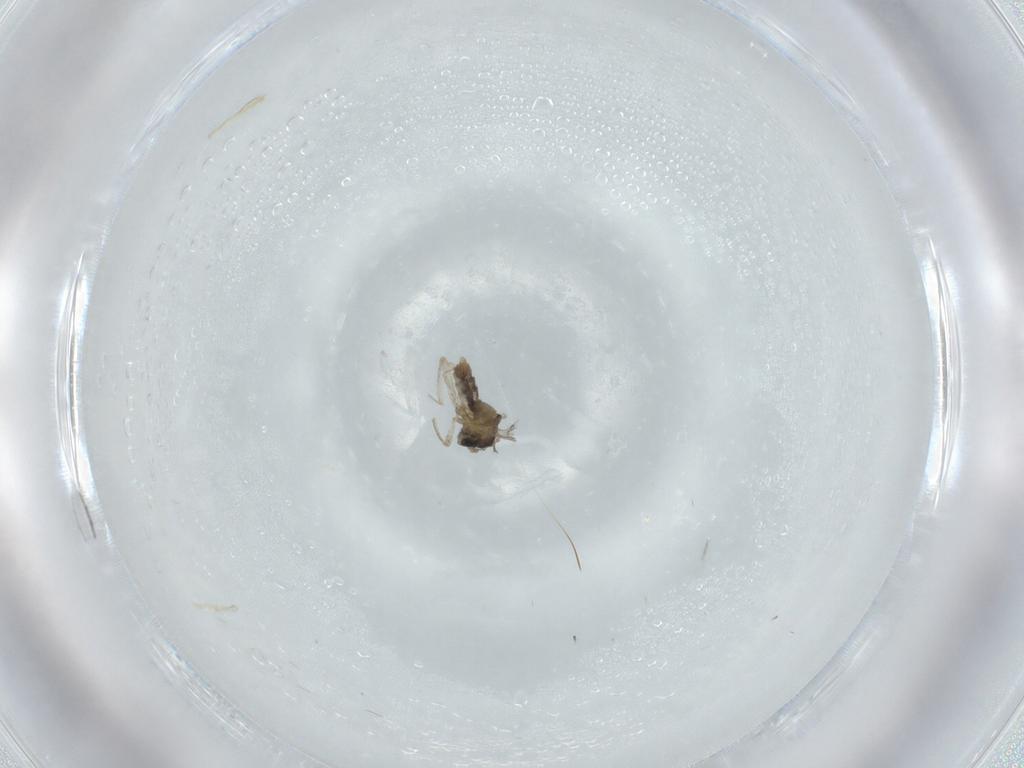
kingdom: Animalia
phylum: Arthropoda
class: Insecta
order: Diptera
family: Cecidomyiidae
